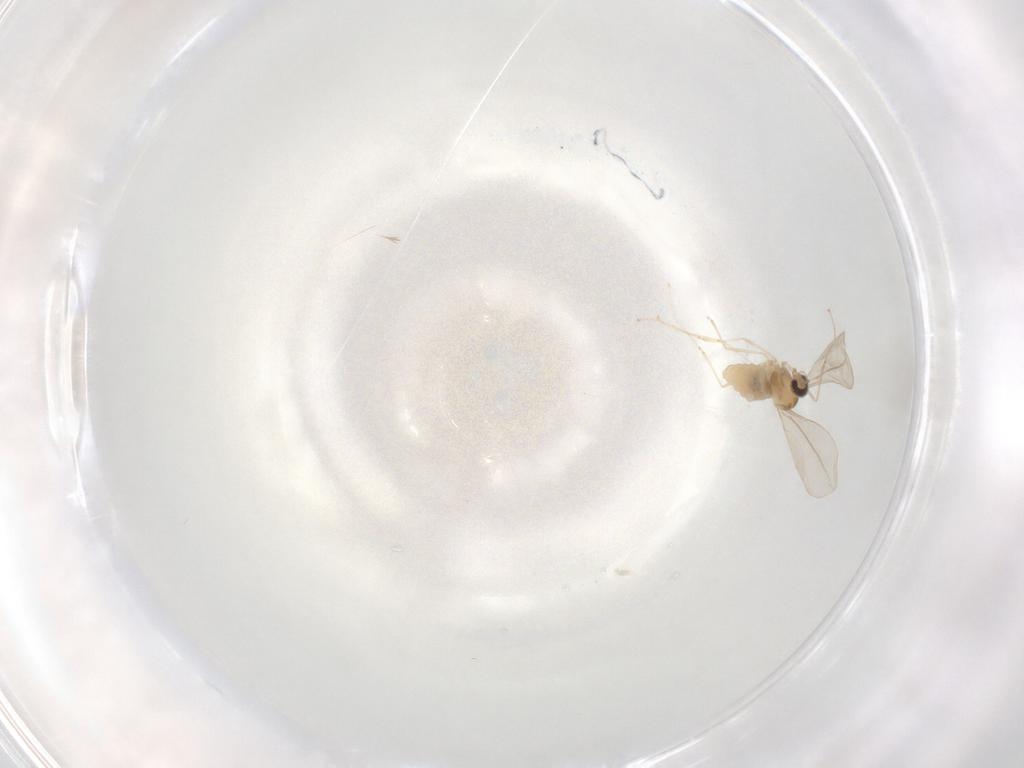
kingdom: Animalia
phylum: Arthropoda
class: Insecta
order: Diptera
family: Cecidomyiidae
